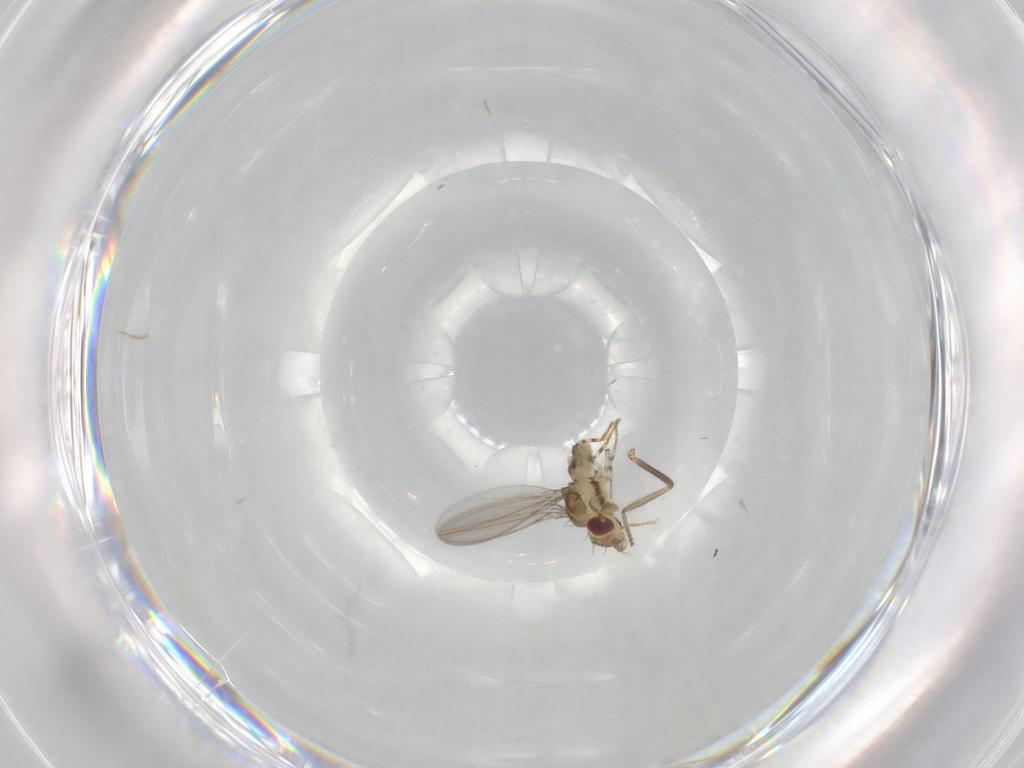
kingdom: Animalia
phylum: Arthropoda
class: Insecta
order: Diptera
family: Asteiidae
